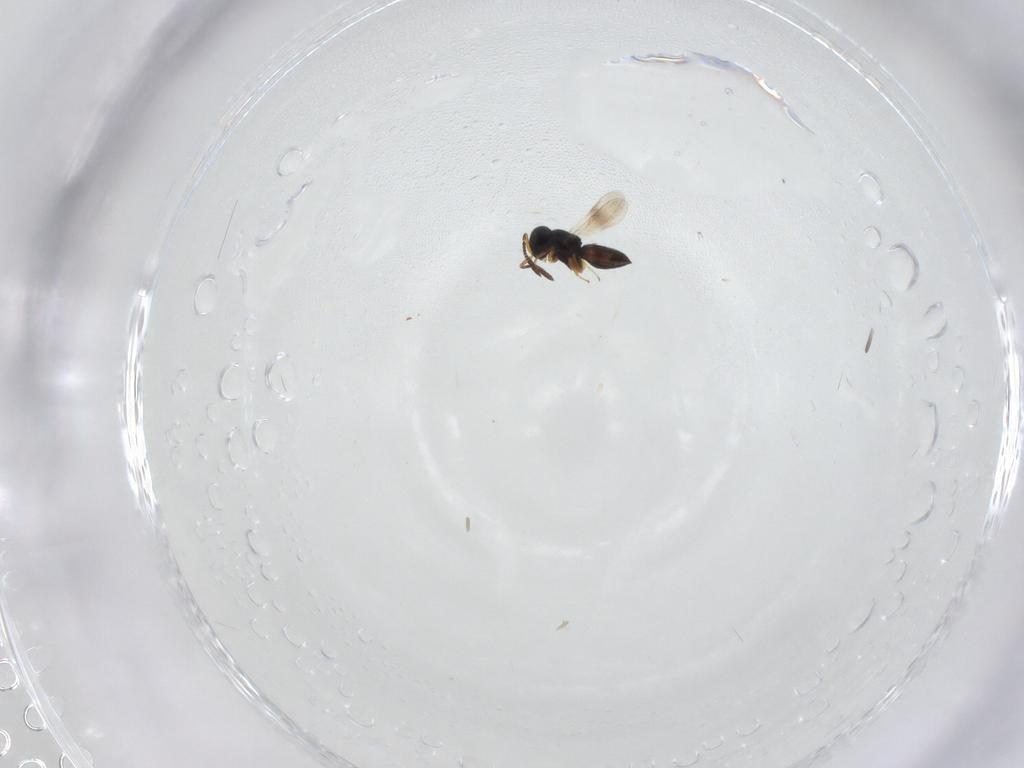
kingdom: Animalia
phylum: Arthropoda
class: Insecta
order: Hymenoptera
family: Scelionidae
